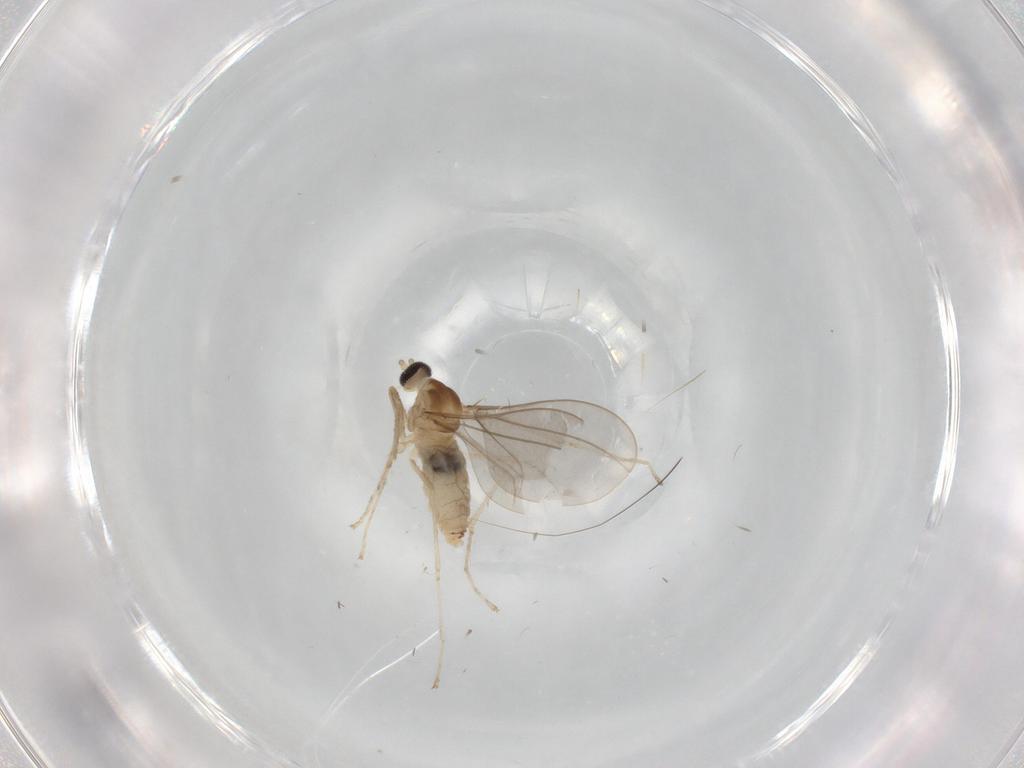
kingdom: Animalia
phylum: Arthropoda
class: Insecta
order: Diptera
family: Cecidomyiidae
